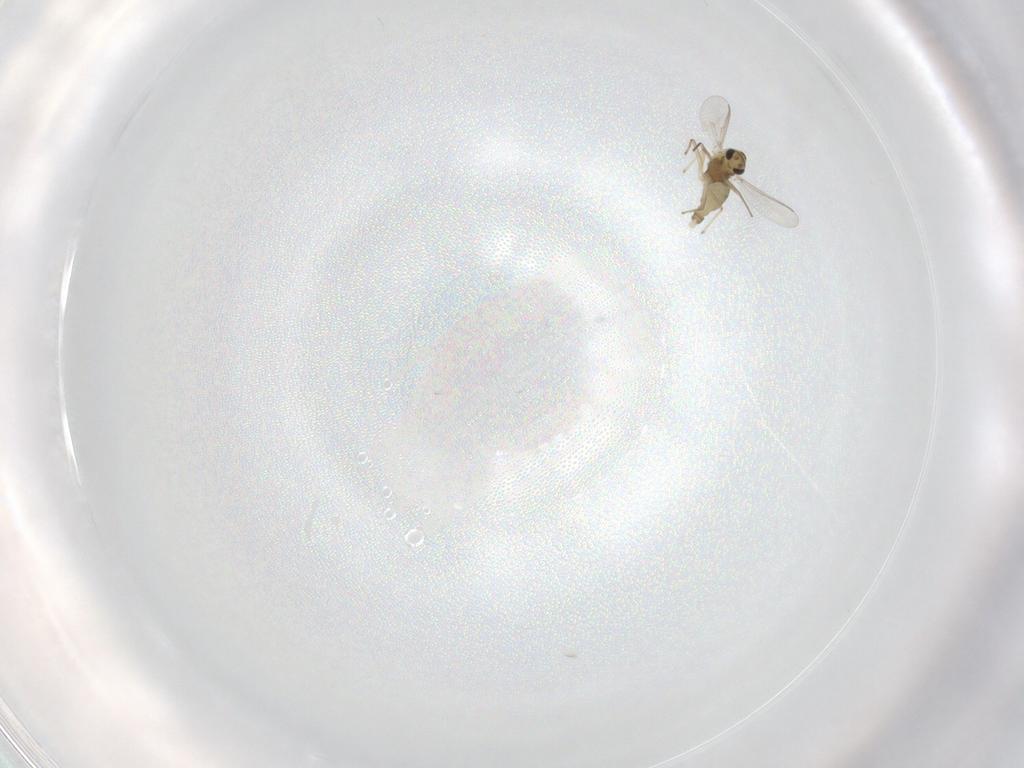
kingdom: Animalia
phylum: Arthropoda
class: Insecta
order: Diptera
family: Chironomidae
